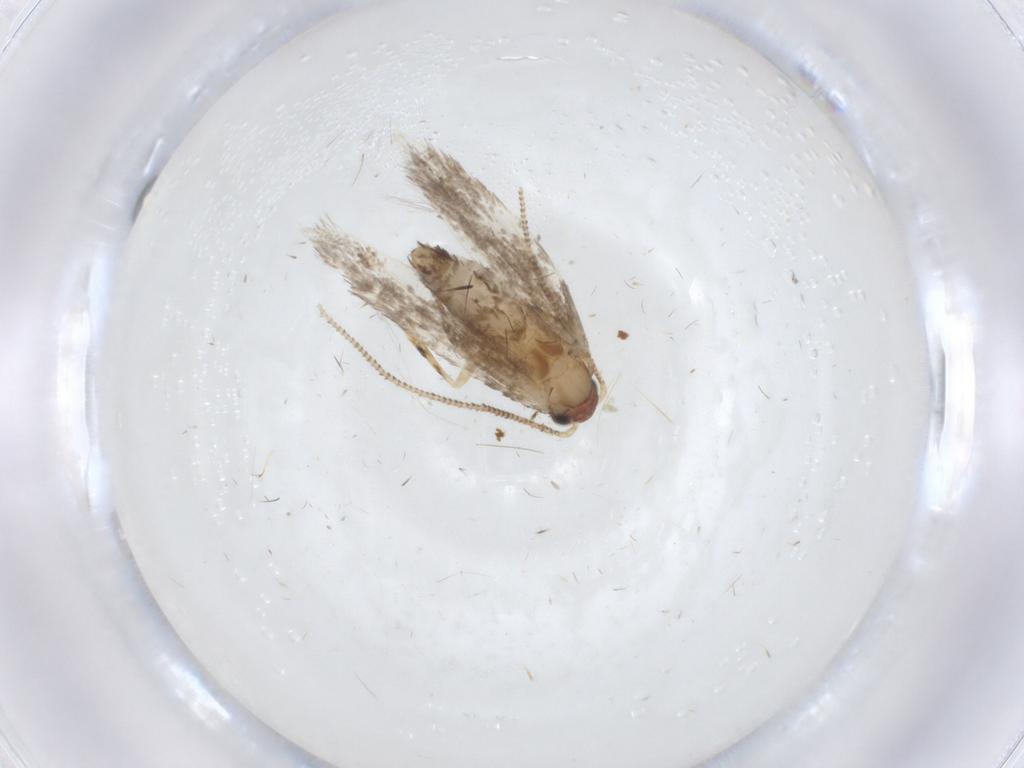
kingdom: Animalia
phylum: Arthropoda
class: Insecta
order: Lepidoptera
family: Tineidae
